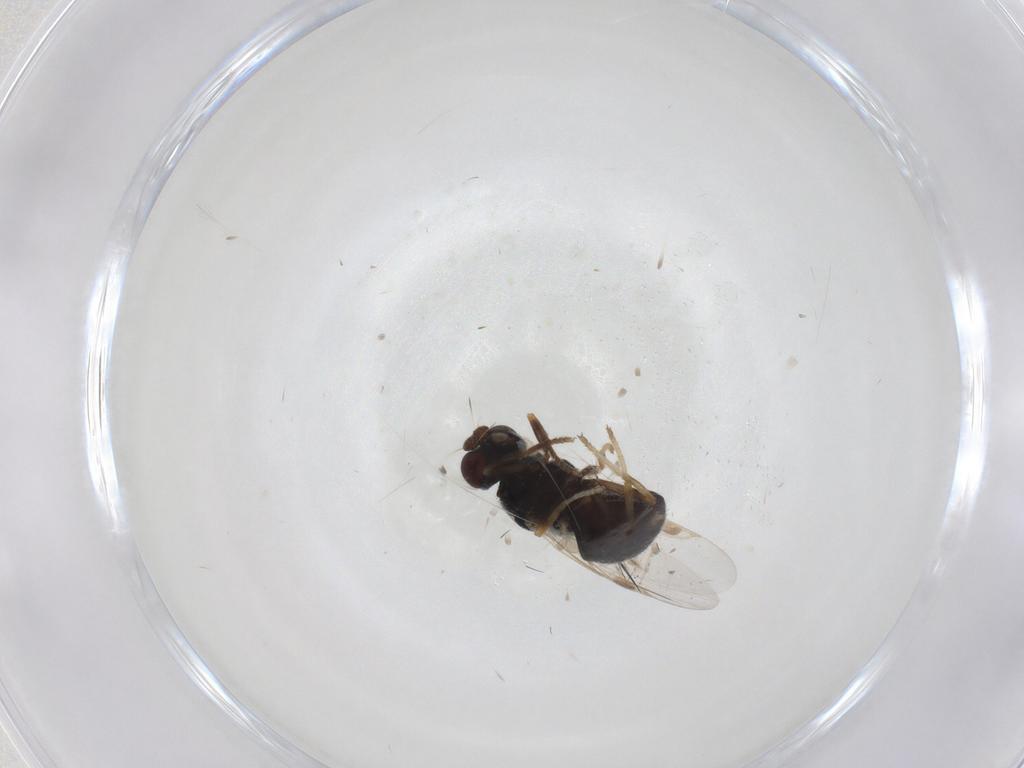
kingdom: Animalia
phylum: Arthropoda
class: Insecta
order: Diptera
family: Stratiomyidae
